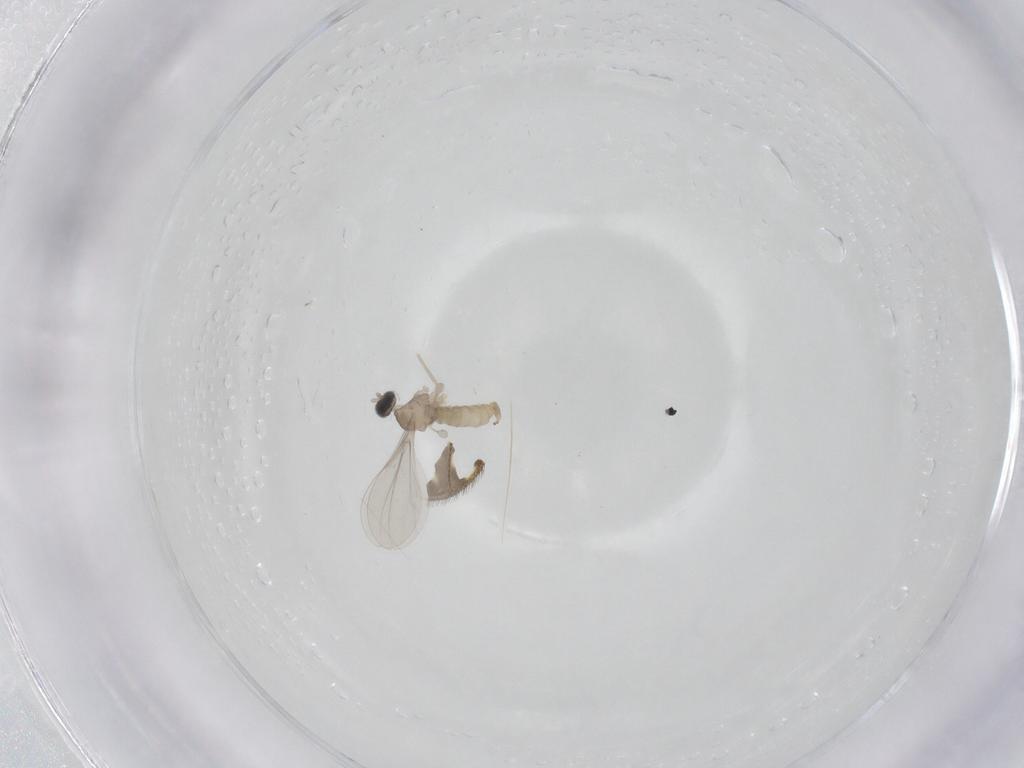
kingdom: Animalia
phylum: Arthropoda
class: Insecta
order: Diptera
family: Cecidomyiidae
